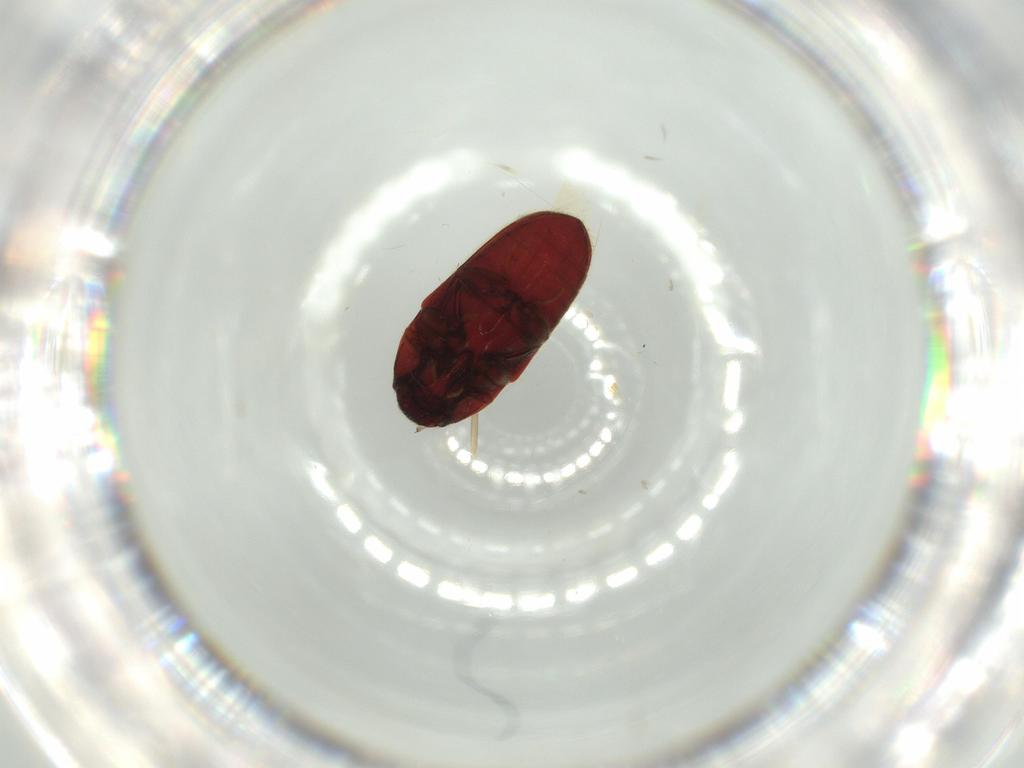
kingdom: Animalia
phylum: Arthropoda
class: Insecta
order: Coleoptera
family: Throscidae
